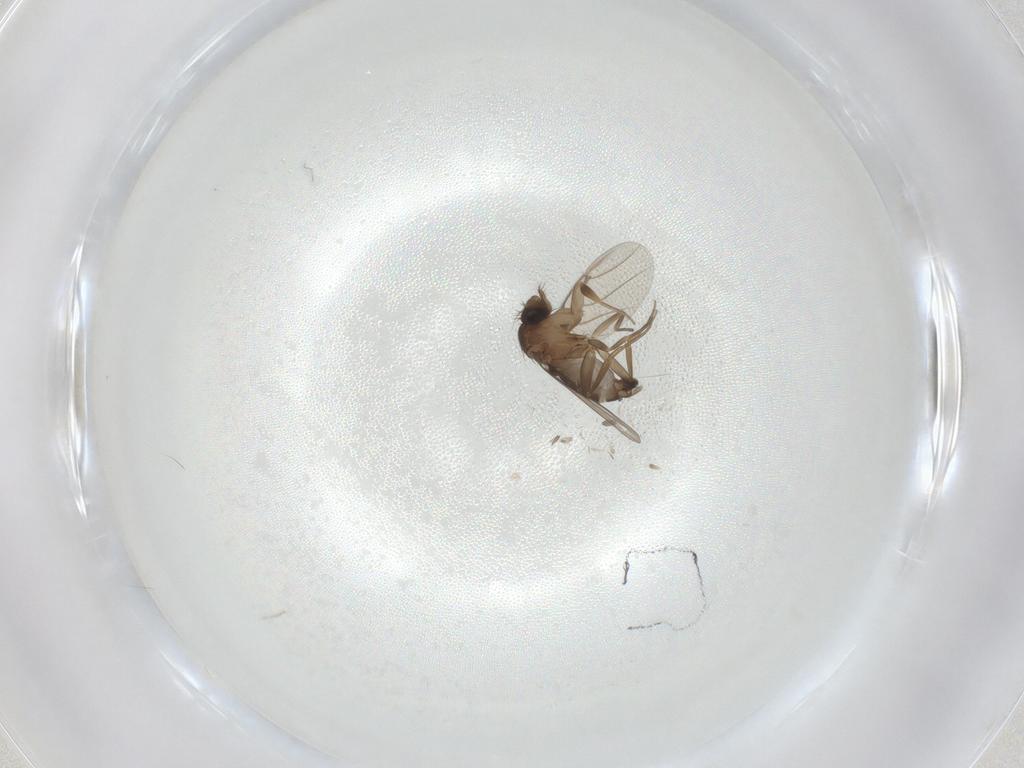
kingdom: Animalia
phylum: Arthropoda
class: Insecta
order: Diptera
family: Phoridae
